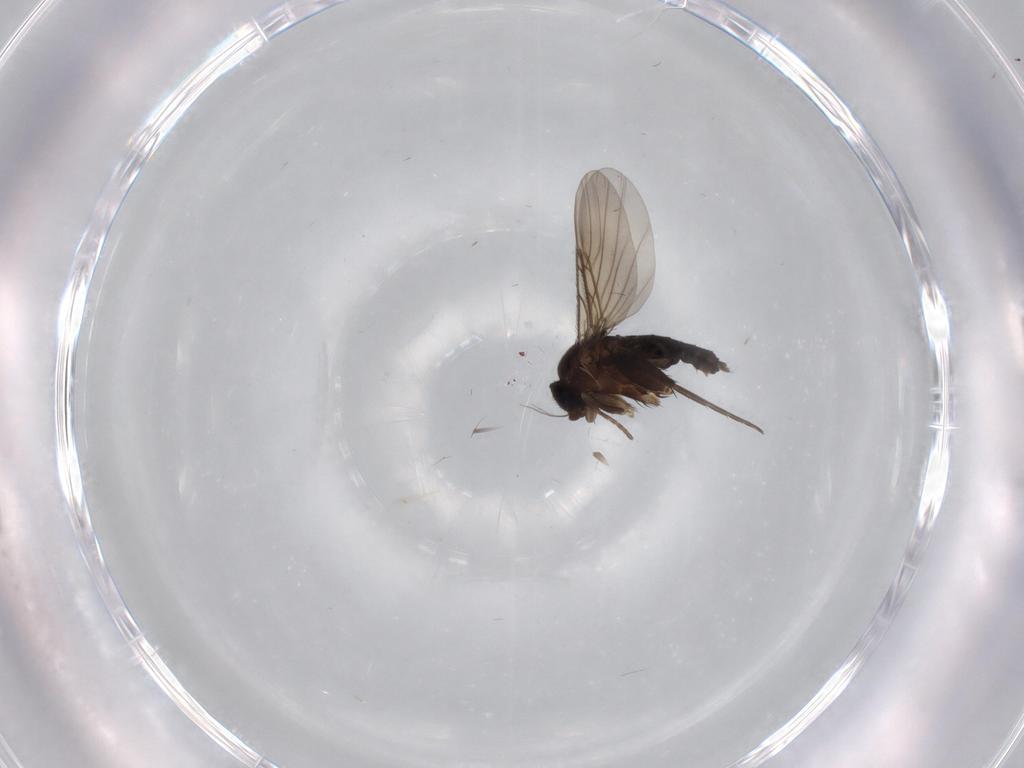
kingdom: Animalia
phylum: Arthropoda
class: Insecta
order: Diptera
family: Phoridae
